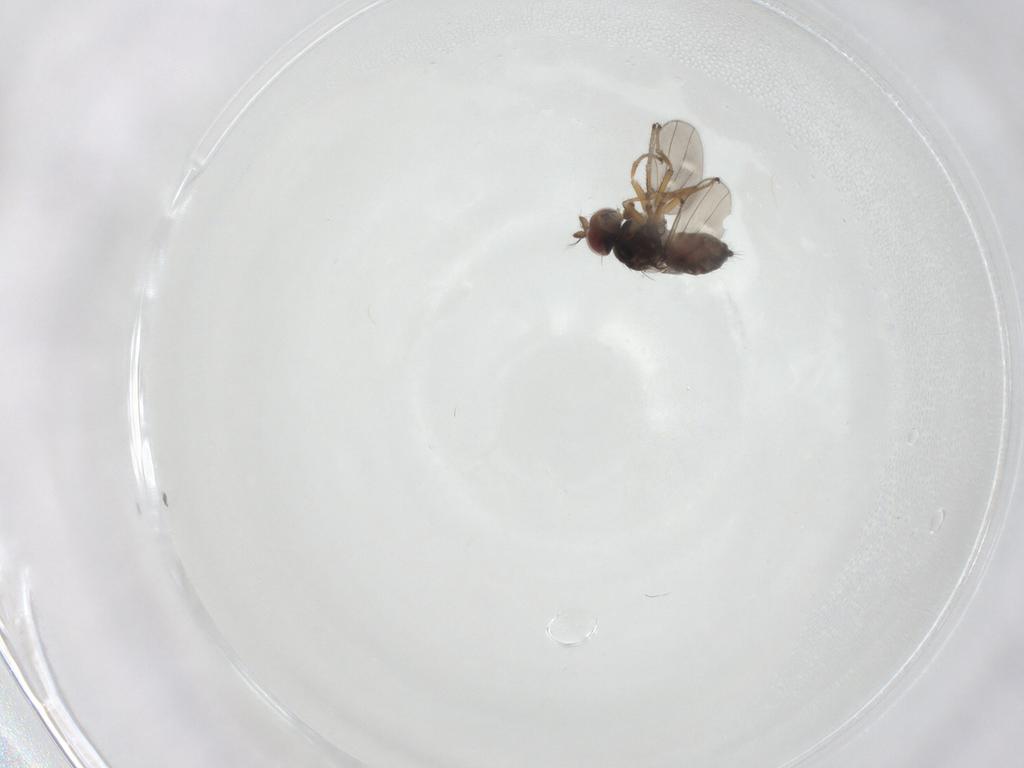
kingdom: Animalia
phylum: Arthropoda
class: Insecta
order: Diptera
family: Ephydridae
